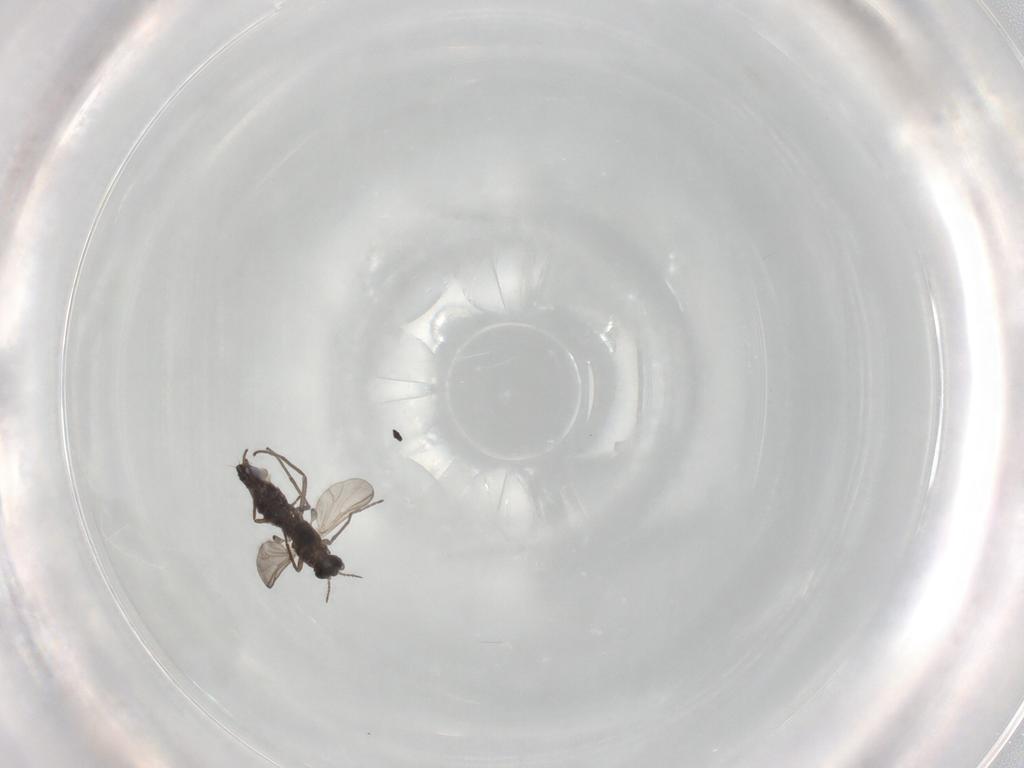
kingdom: Animalia
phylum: Arthropoda
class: Insecta
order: Diptera
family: Chironomidae
